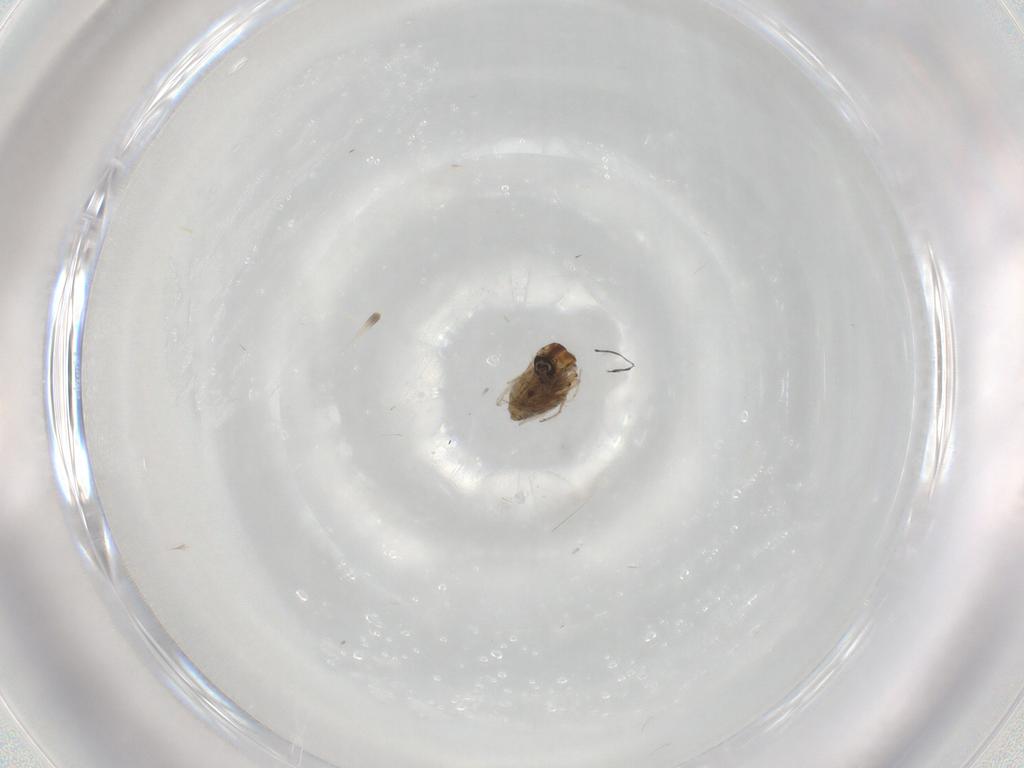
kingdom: Animalia
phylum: Arthropoda
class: Insecta
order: Diptera
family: Ceratopogonidae
